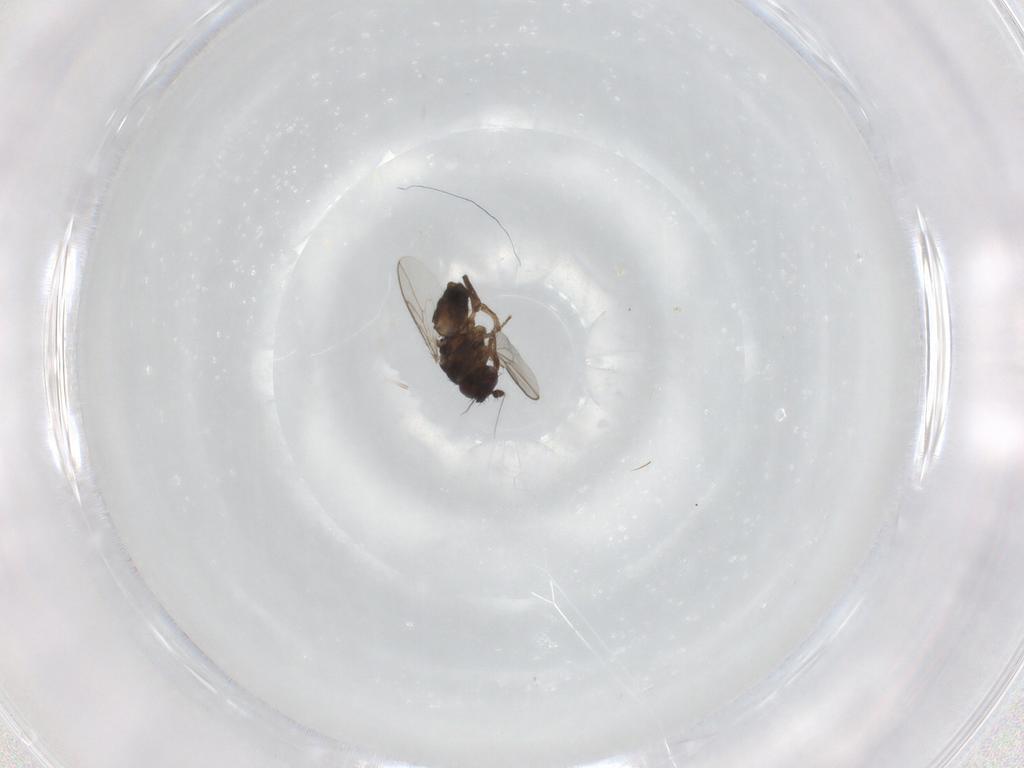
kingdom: Animalia
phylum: Arthropoda
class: Insecta
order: Diptera
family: Sphaeroceridae
